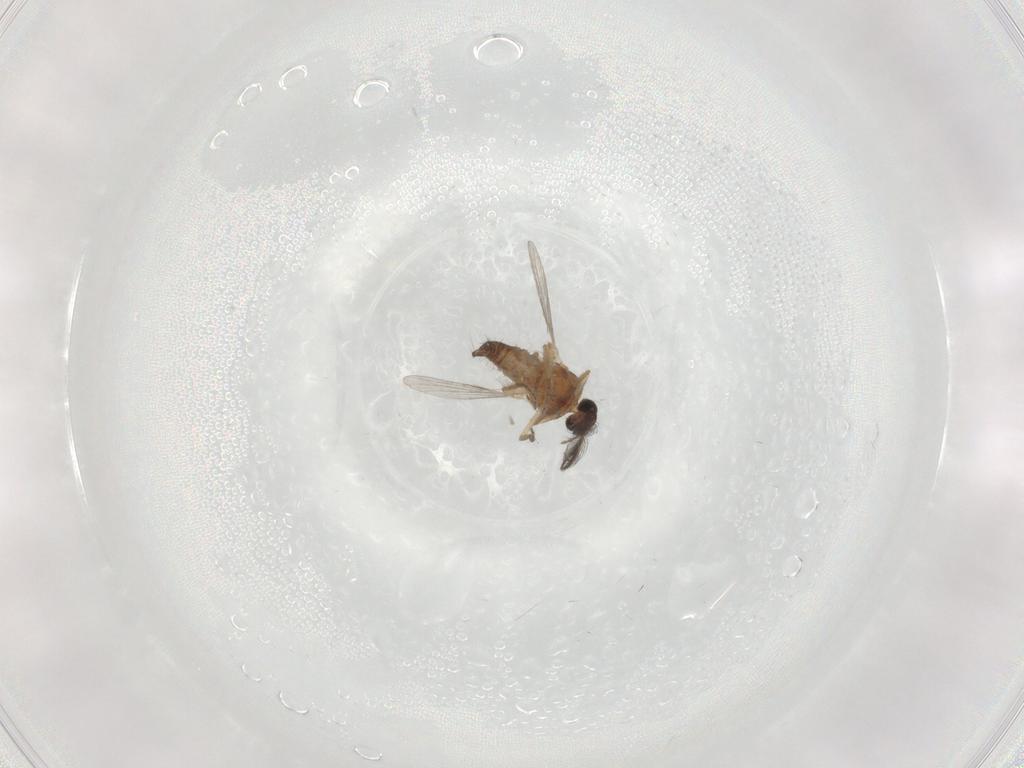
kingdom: Animalia
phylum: Arthropoda
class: Insecta
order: Diptera
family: Ceratopogonidae
